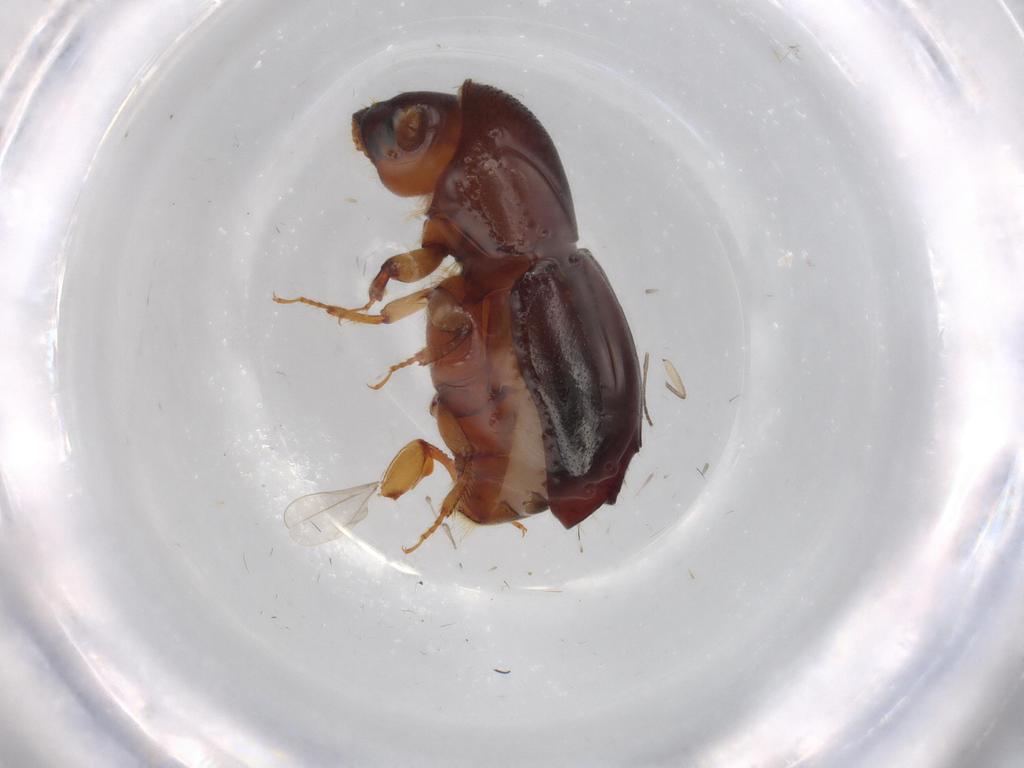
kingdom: Animalia
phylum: Arthropoda
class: Insecta
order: Coleoptera
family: Curculionidae
